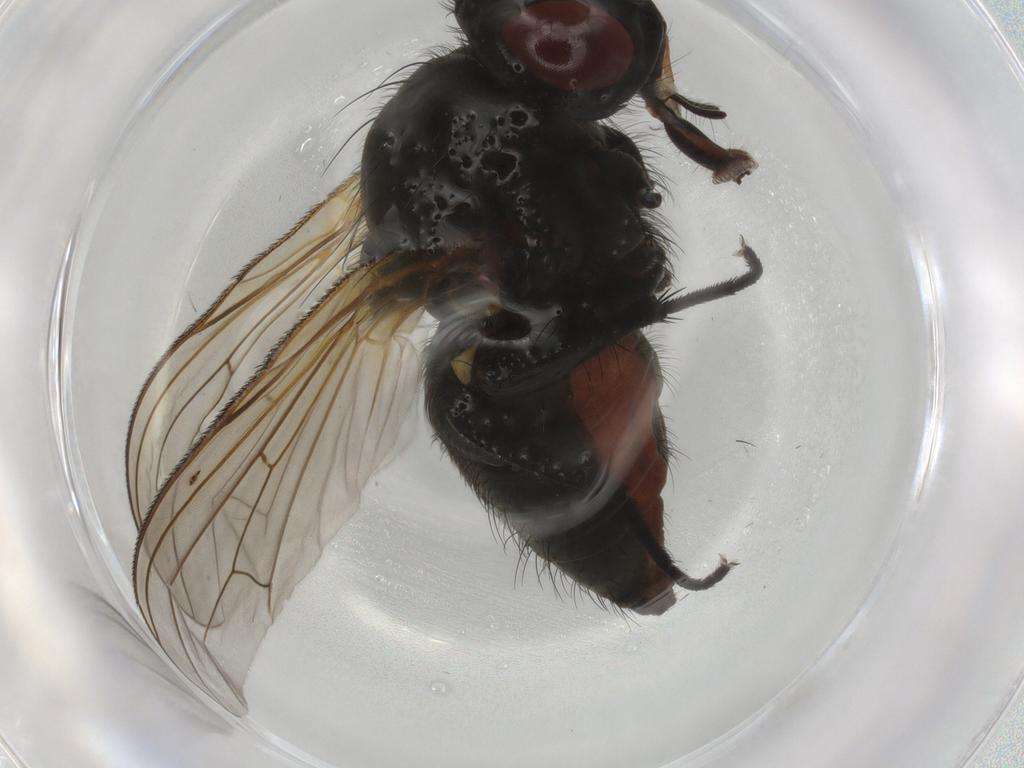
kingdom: Animalia
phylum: Arthropoda
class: Insecta
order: Diptera
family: Anthomyiidae
